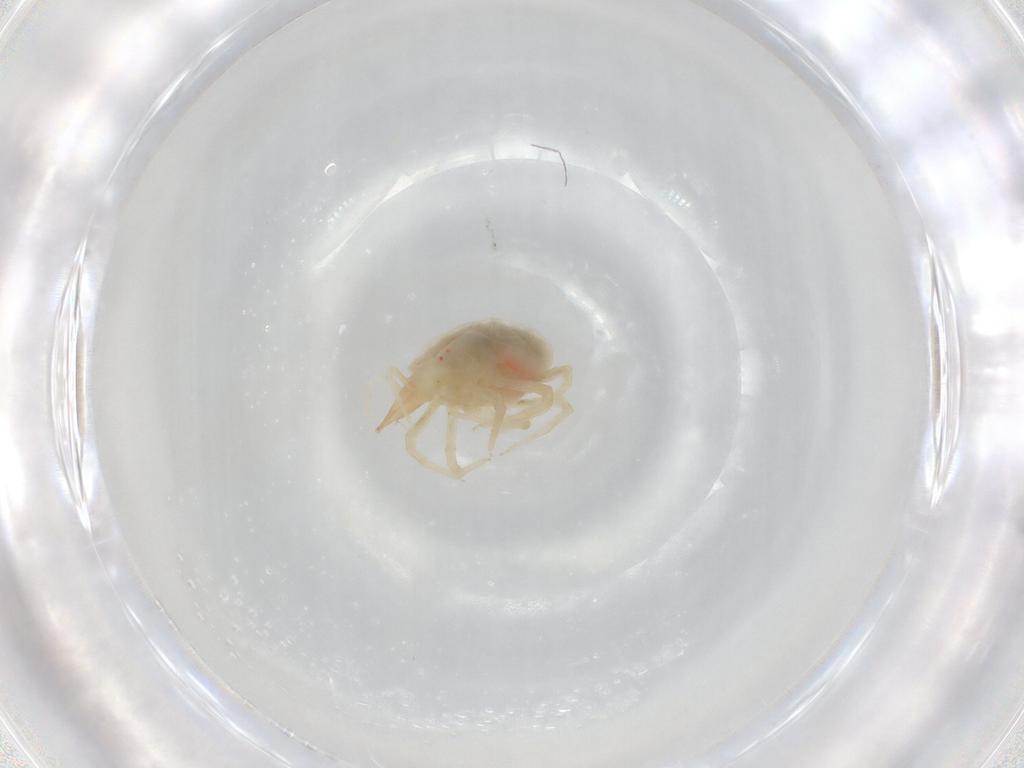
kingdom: Animalia
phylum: Arthropoda
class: Arachnida
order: Trombidiformes
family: Bdellidae
